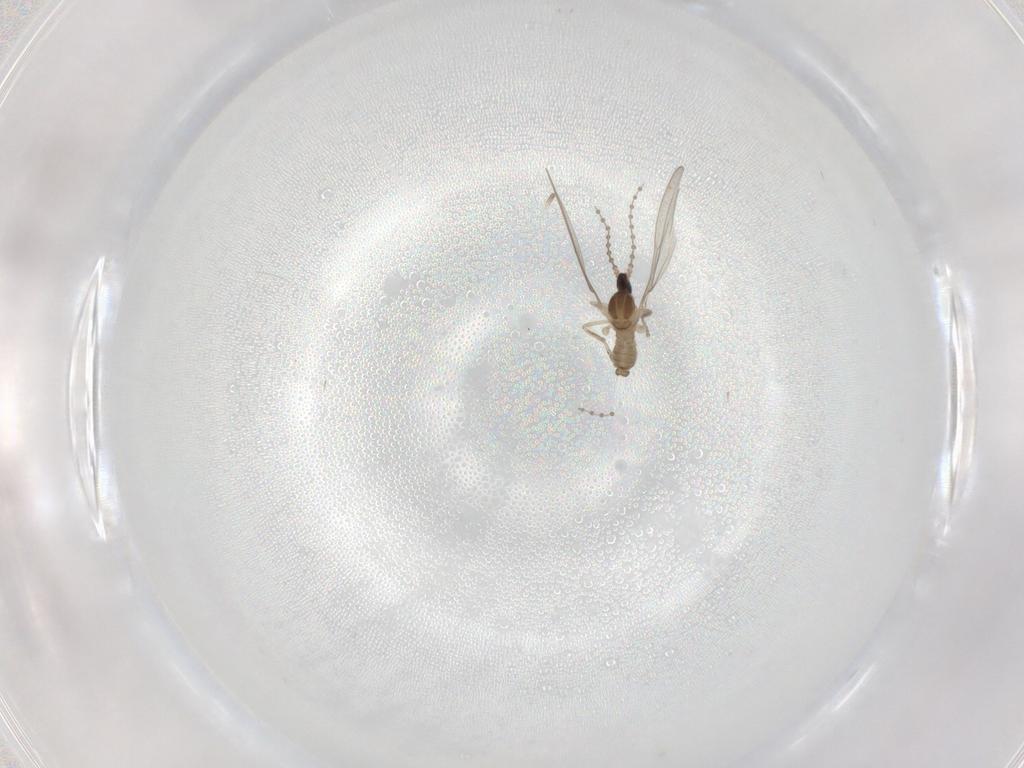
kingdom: Animalia
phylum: Arthropoda
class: Insecta
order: Diptera
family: Cecidomyiidae
